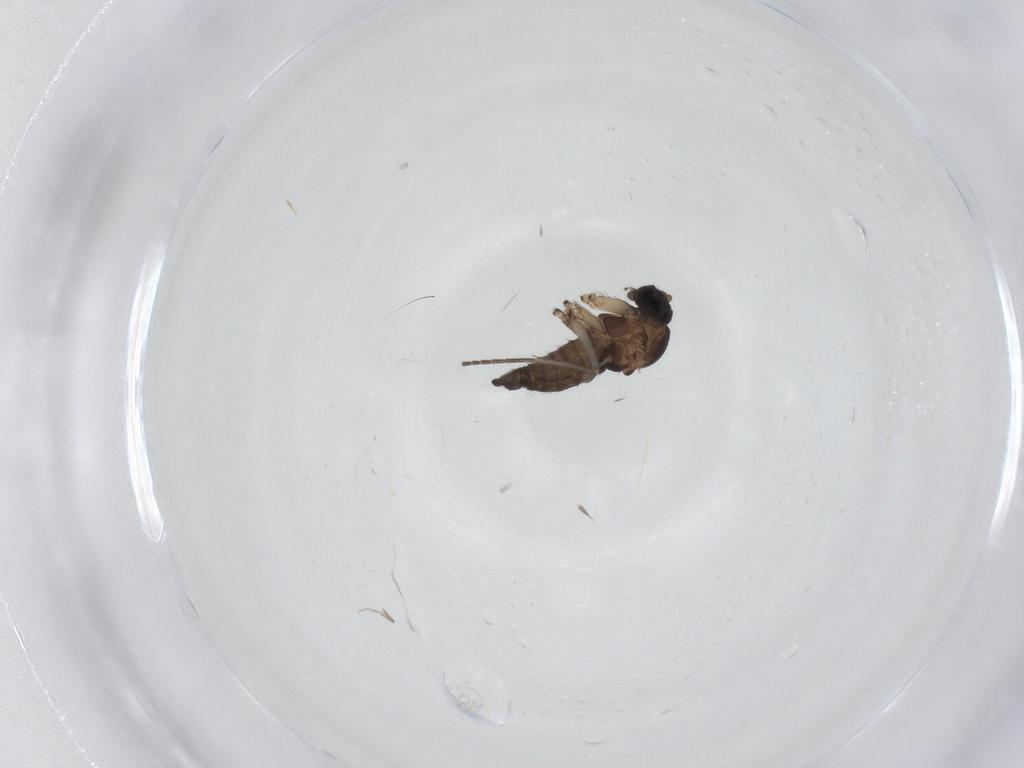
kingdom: Animalia
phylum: Arthropoda
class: Insecta
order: Diptera
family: Sciaridae
